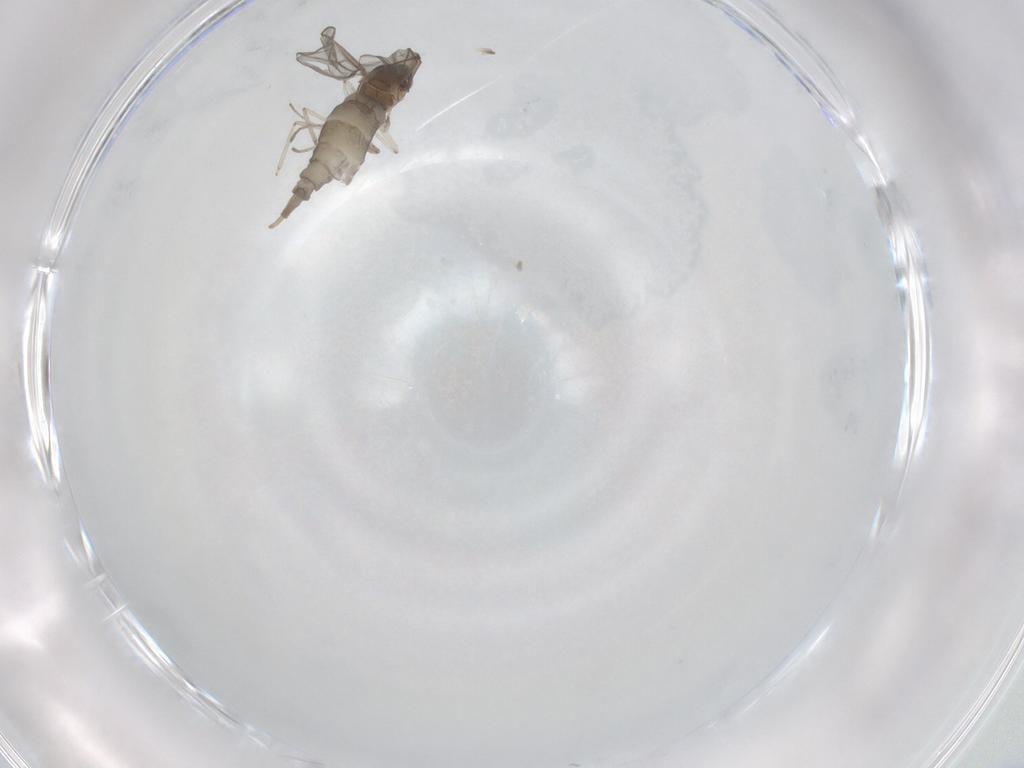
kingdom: Animalia
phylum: Arthropoda
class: Insecta
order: Diptera
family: Cecidomyiidae
